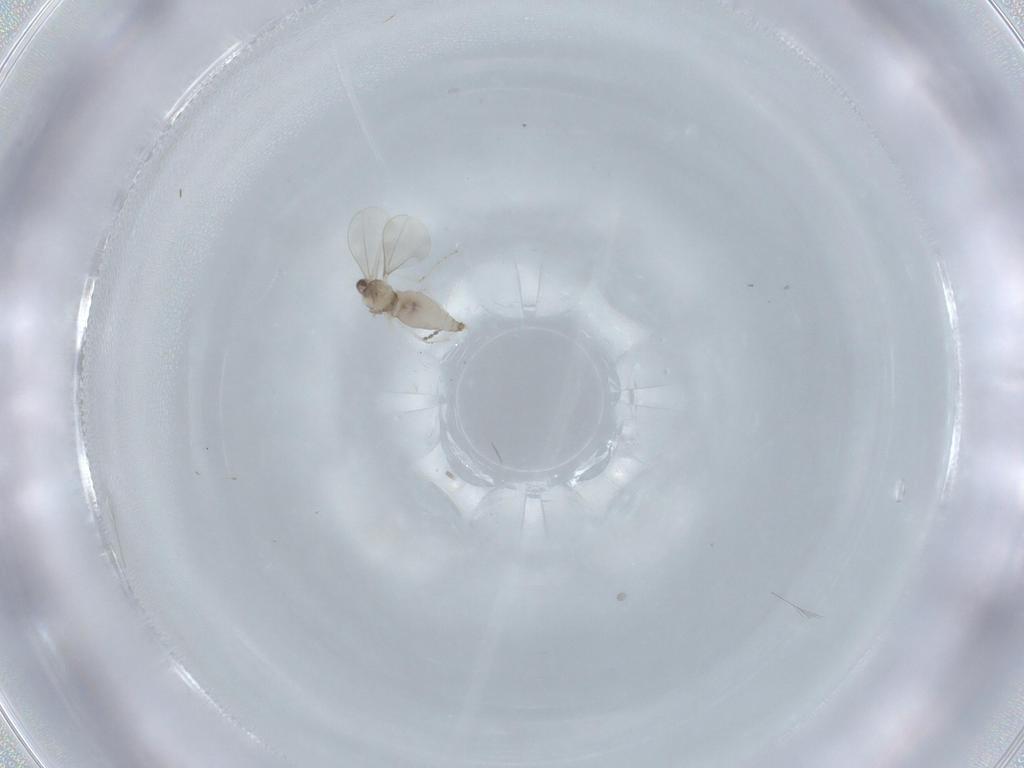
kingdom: Animalia
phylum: Arthropoda
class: Insecta
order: Diptera
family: Cecidomyiidae
